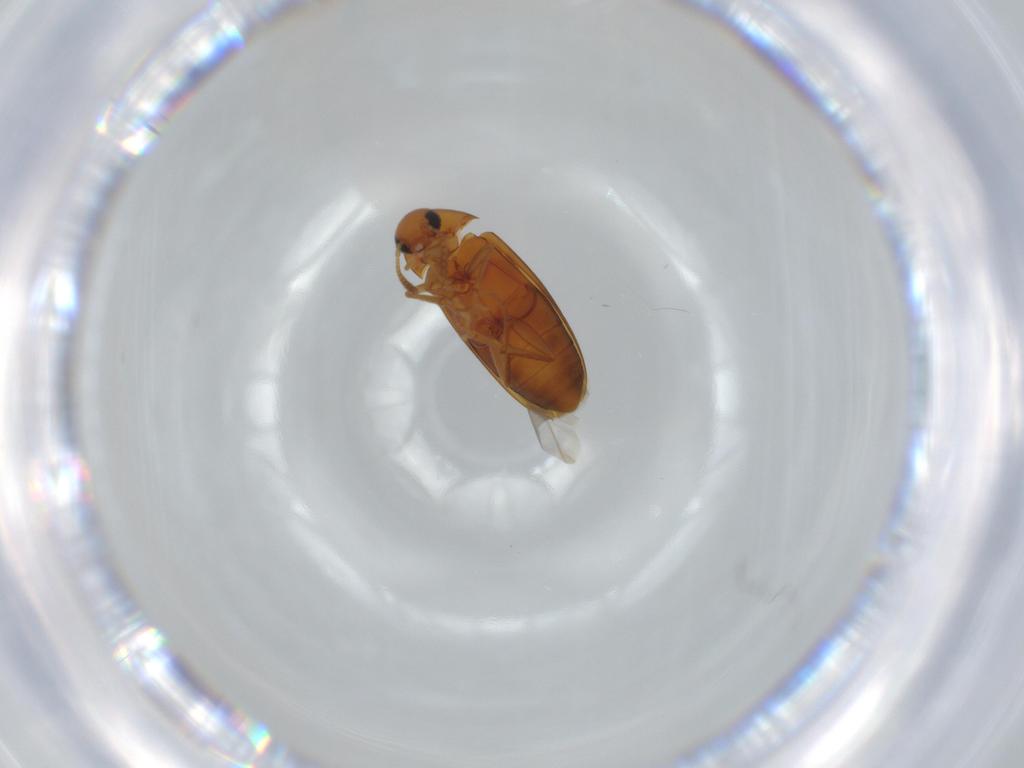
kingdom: Animalia
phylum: Arthropoda
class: Insecta
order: Coleoptera
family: Scraptiidae
